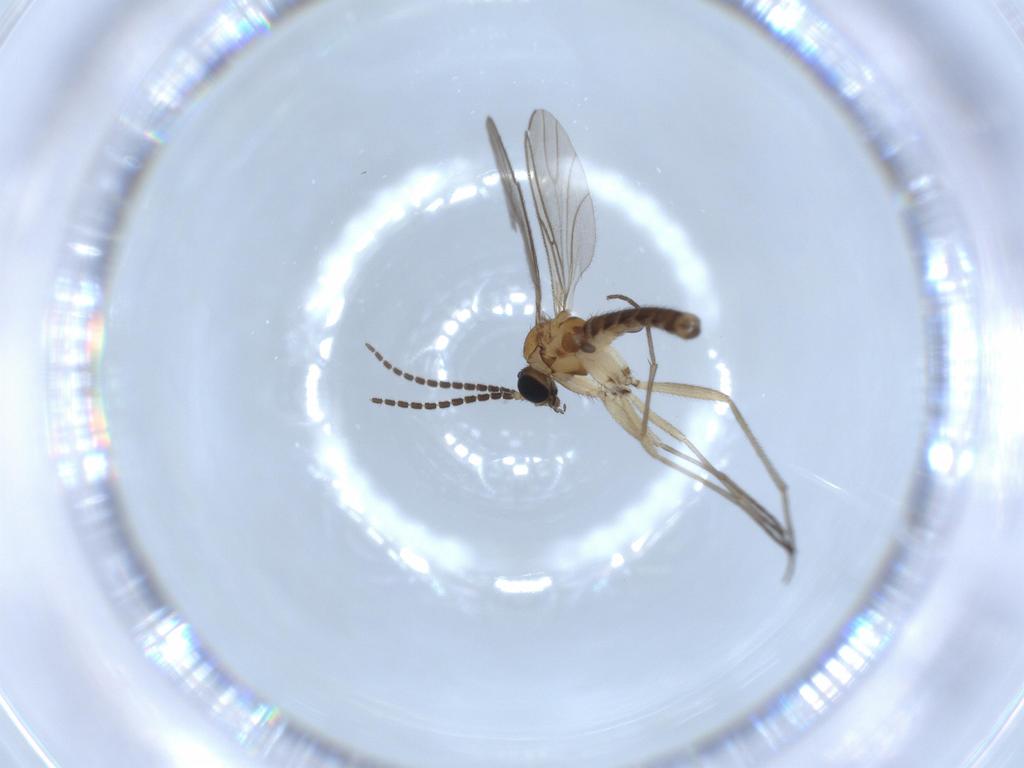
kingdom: Animalia
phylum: Arthropoda
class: Insecta
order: Diptera
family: Sciaridae
